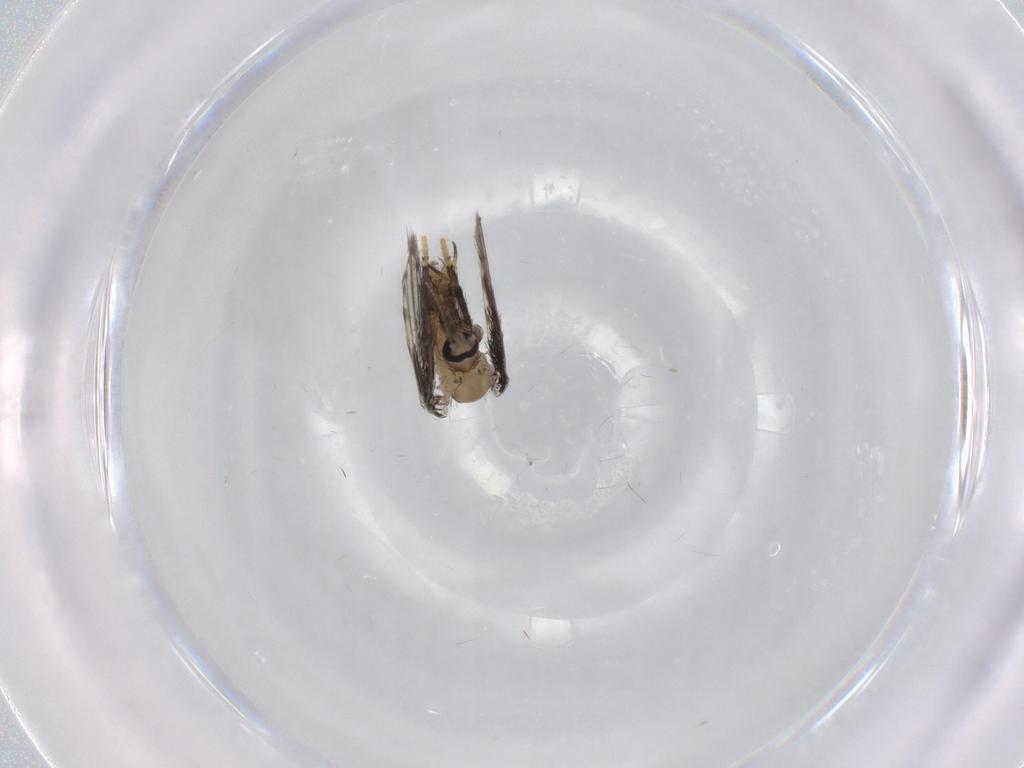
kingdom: Animalia
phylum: Arthropoda
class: Insecta
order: Diptera
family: Psychodidae
